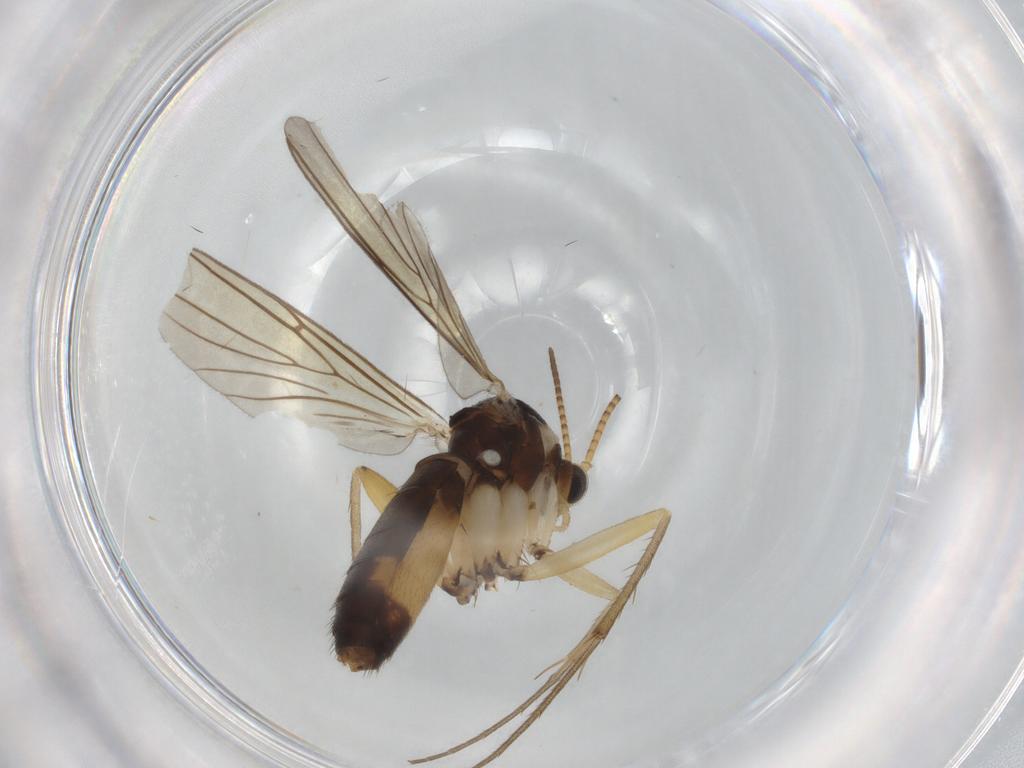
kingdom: Animalia
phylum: Arthropoda
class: Insecta
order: Diptera
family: Mycetophilidae
